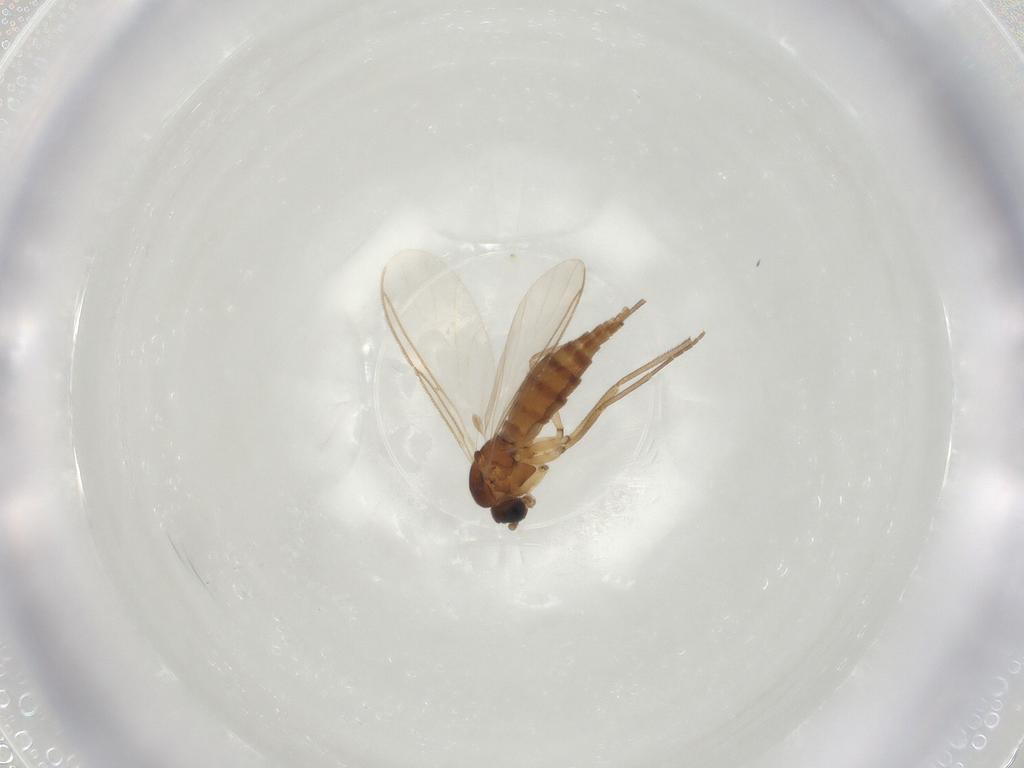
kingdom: Animalia
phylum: Arthropoda
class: Insecta
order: Diptera
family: Sciaridae
